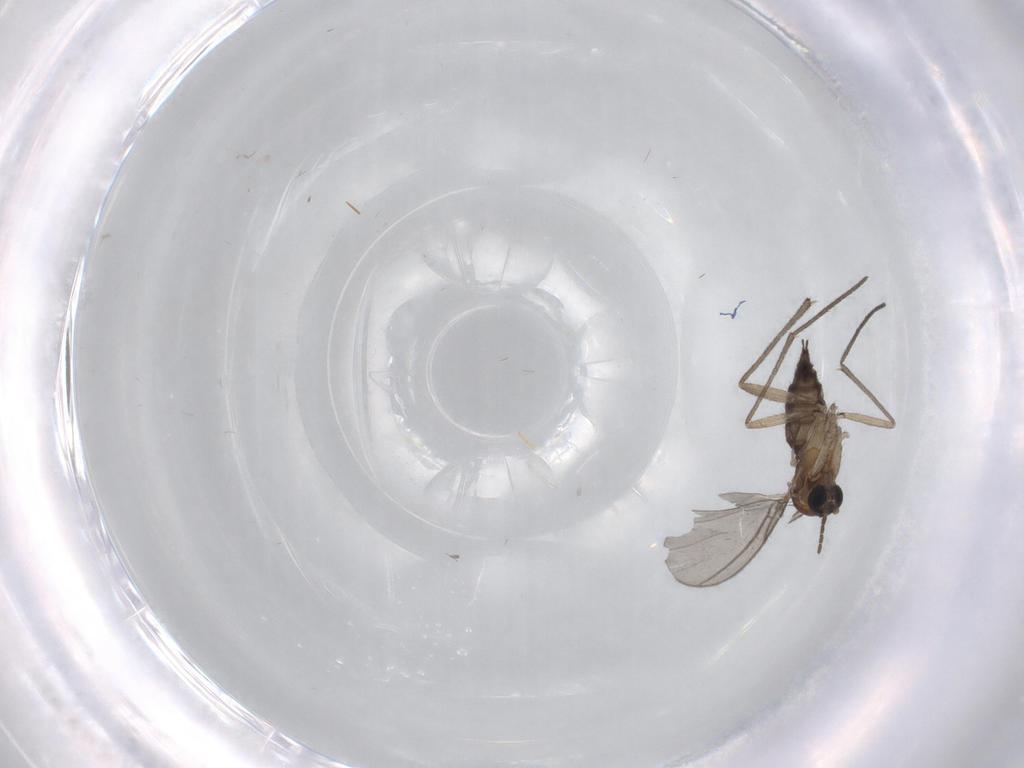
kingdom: Animalia
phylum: Arthropoda
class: Insecta
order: Diptera
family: Sciaridae
